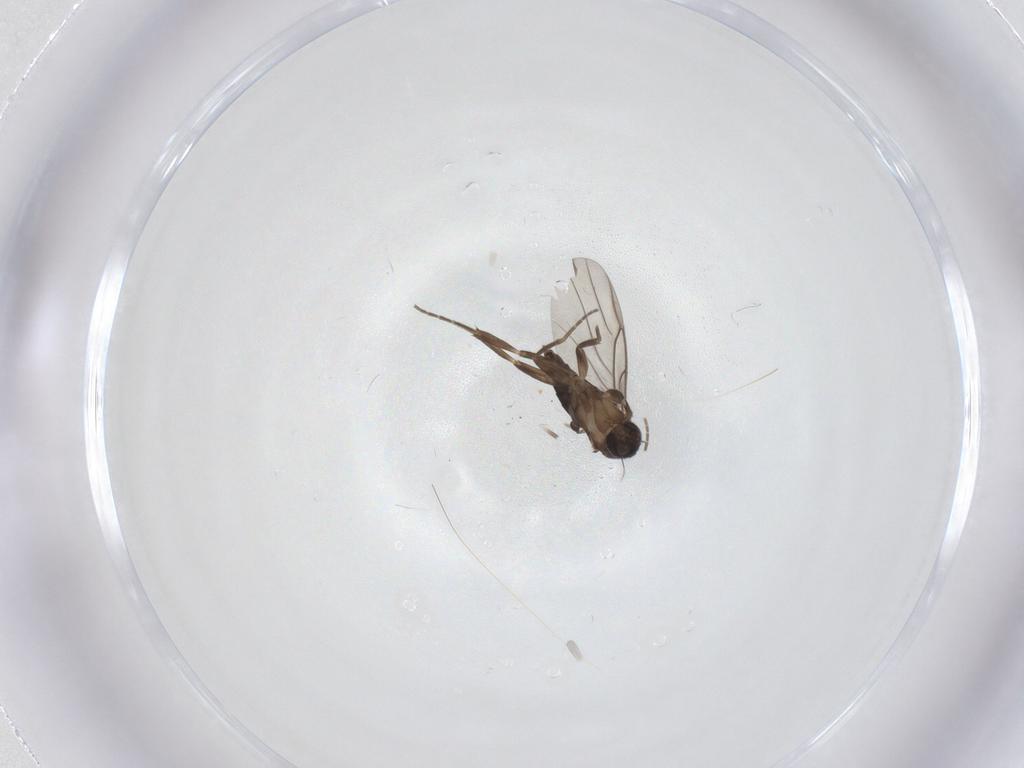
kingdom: Animalia
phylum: Arthropoda
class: Insecta
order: Diptera
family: Phoridae
